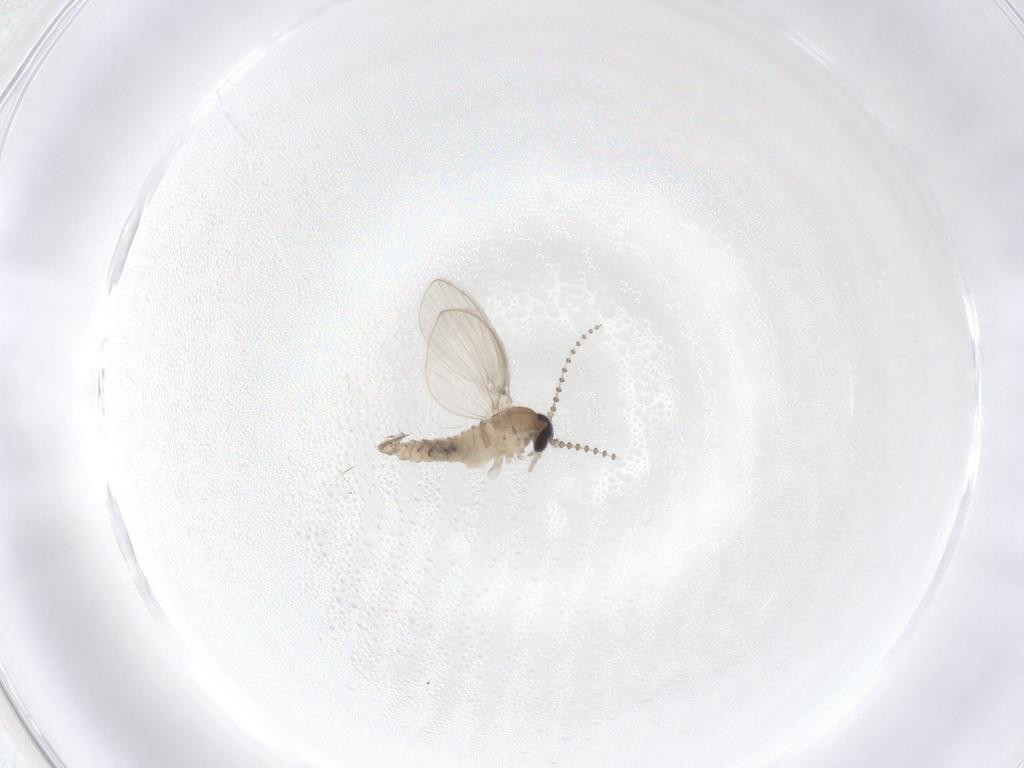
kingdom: Animalia
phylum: Arthropoda
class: Insecta
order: Diptera
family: Psychodidae
